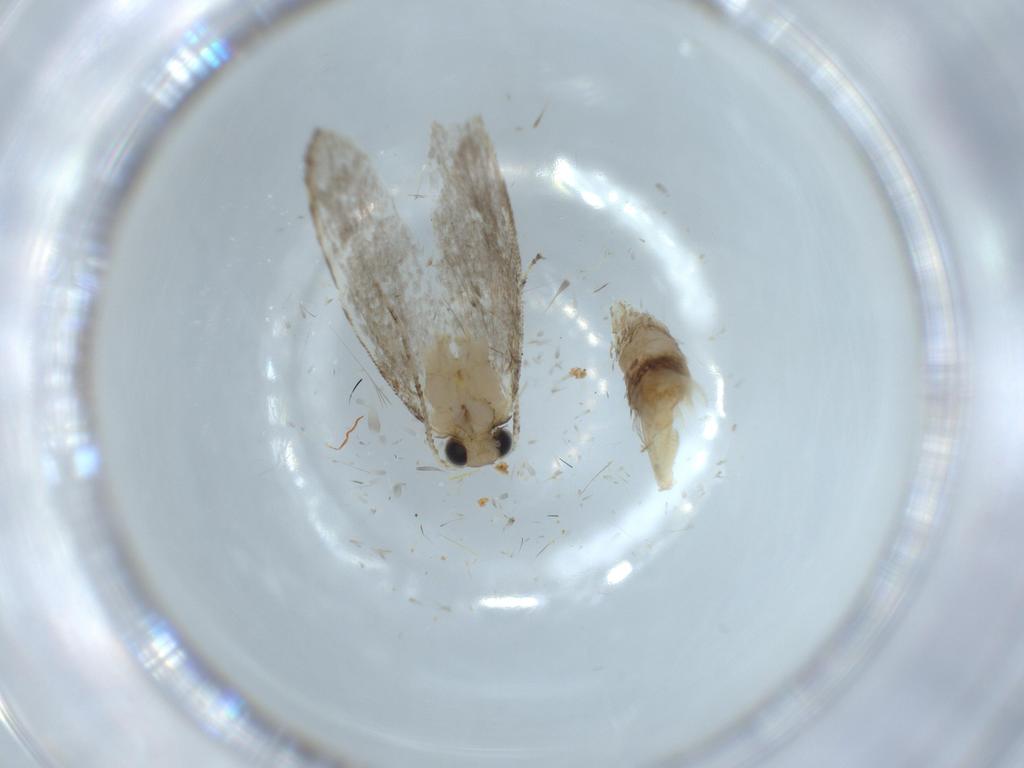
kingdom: Animalia
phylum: Arthropoda
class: Insecta
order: Lepidoptera
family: Tineidae
